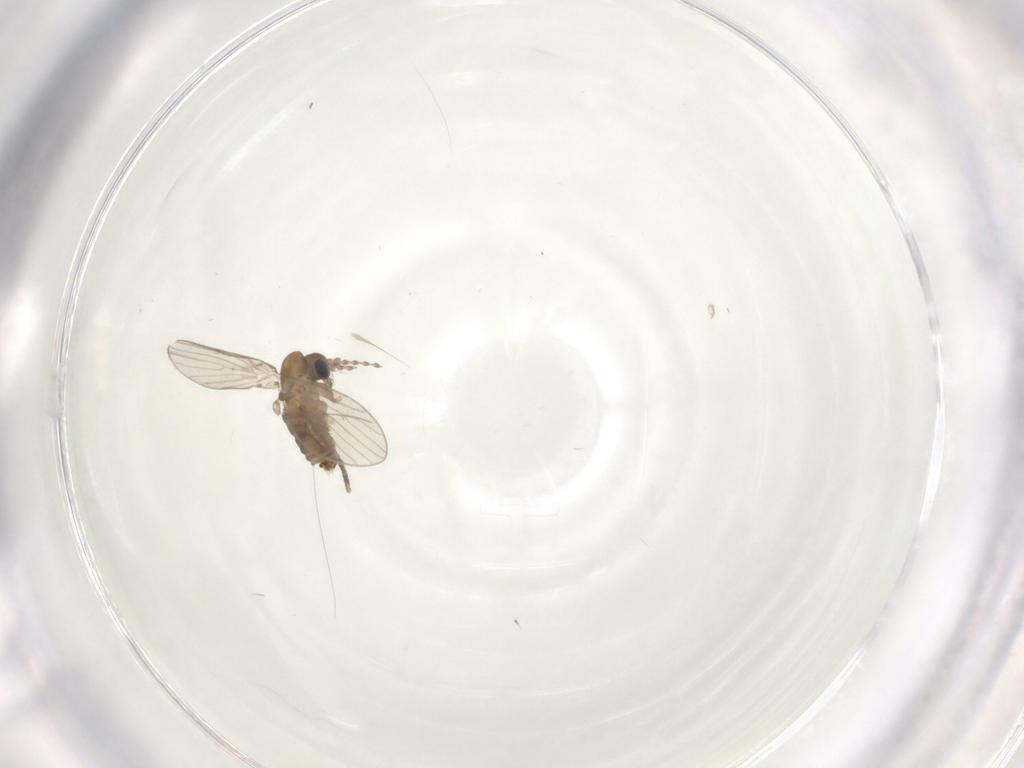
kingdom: Animalia
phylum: Arthropoda
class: Insecta
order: Diptera
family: Psychodidae
